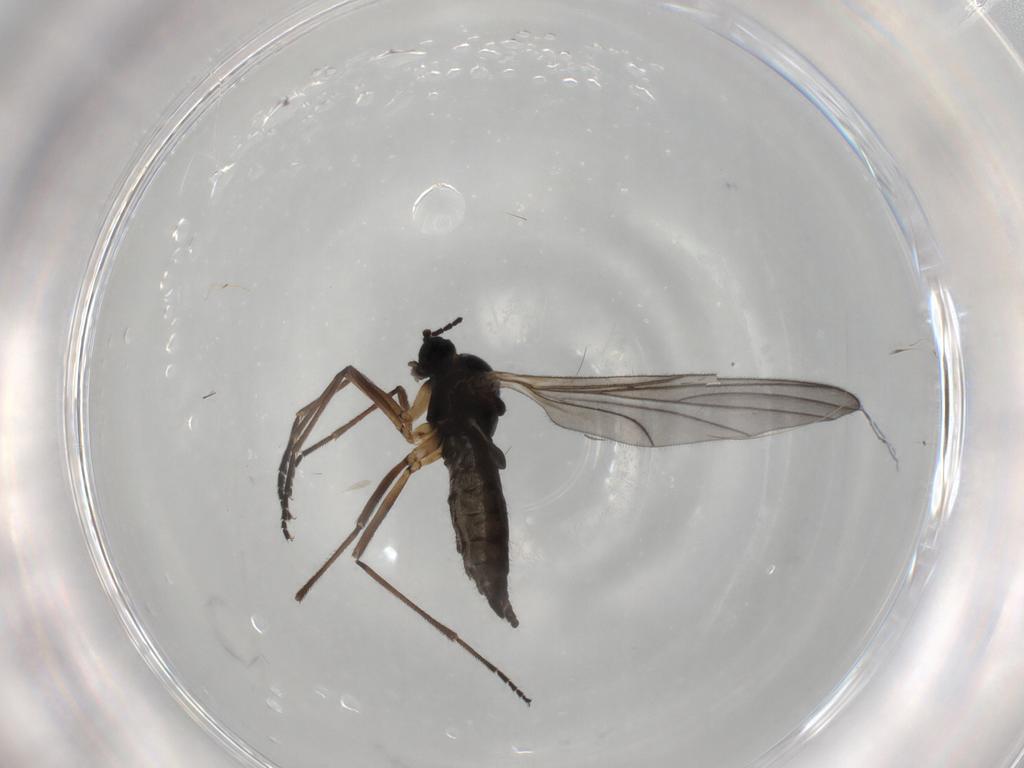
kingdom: Animalia
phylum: Arthropoda
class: Insecta
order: Diptera
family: Sciaridae
